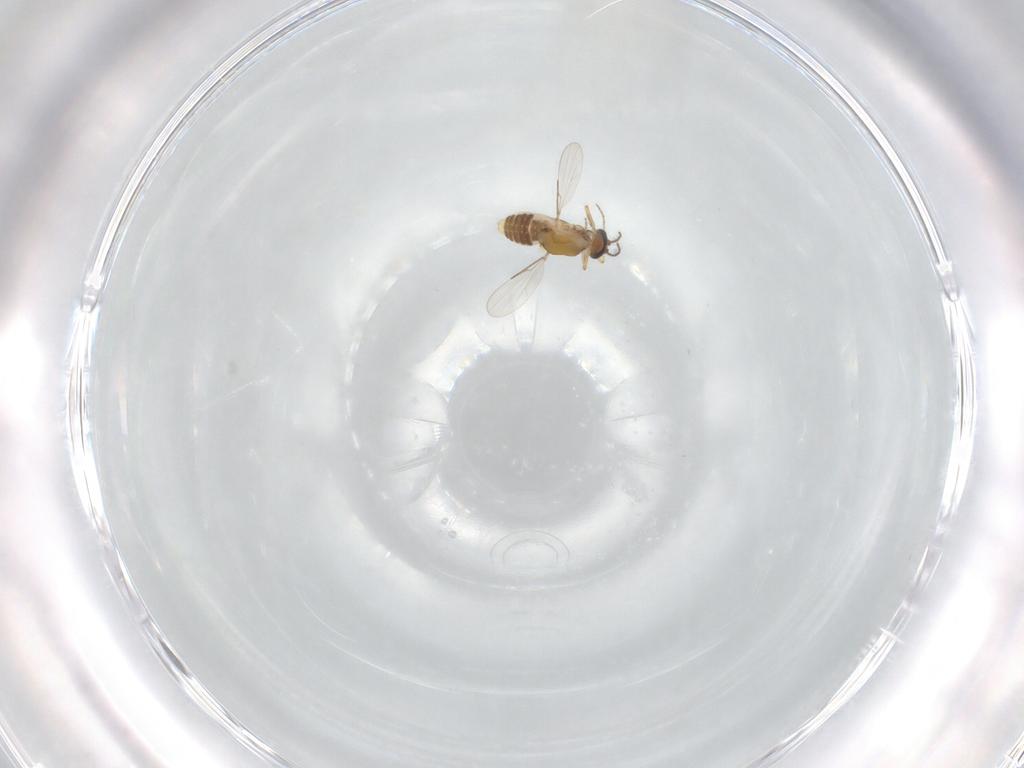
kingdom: Animalia
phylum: Arthropoda
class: Insecta
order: Diptera
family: Ceratopogonidae
